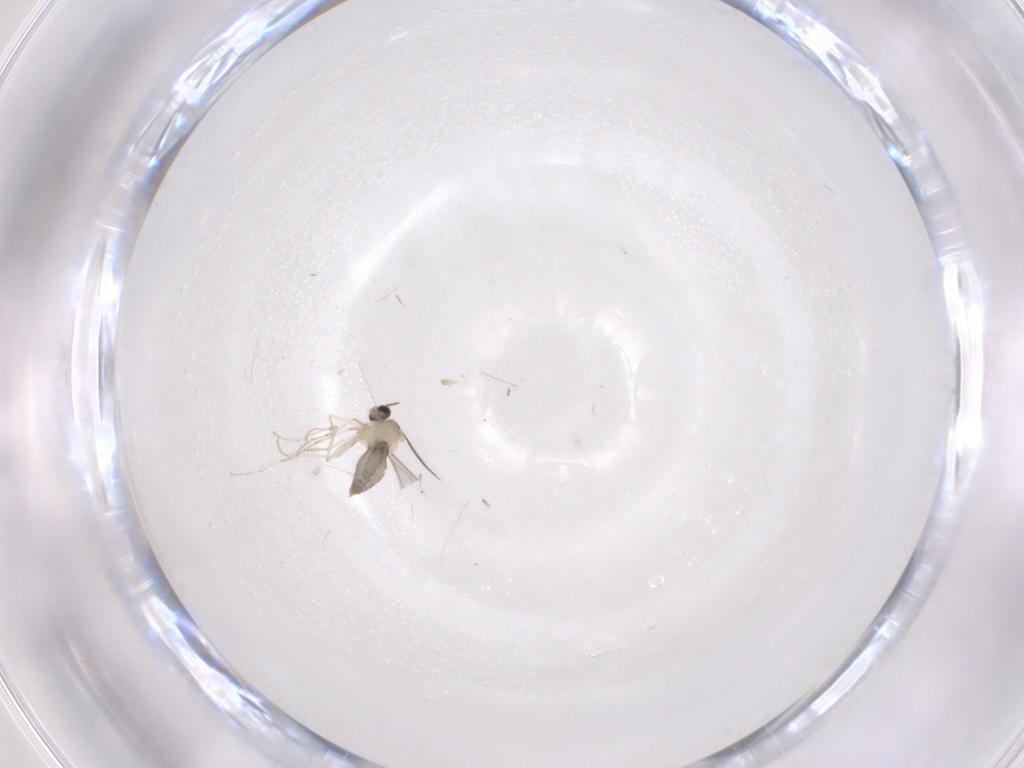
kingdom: Animalia
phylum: Arthropoda
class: Insecta
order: Diptera
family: Cecidomyiidae
